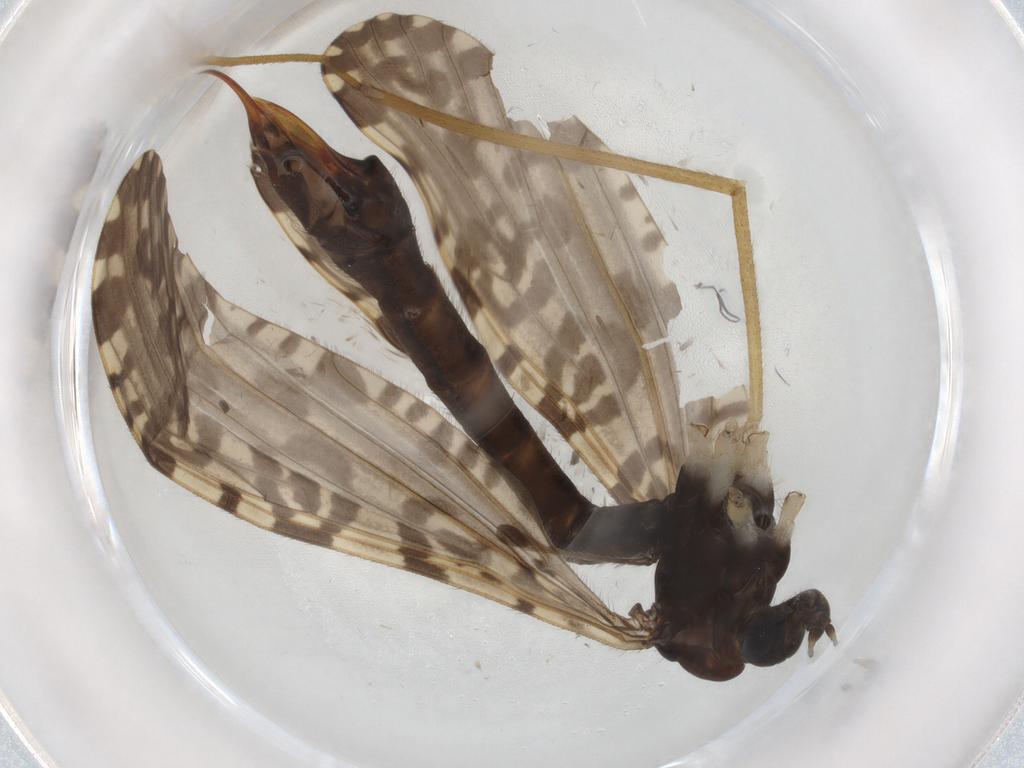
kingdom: Animalia
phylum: Arthropoda
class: Insecta
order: Diptera
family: Limoniidae
